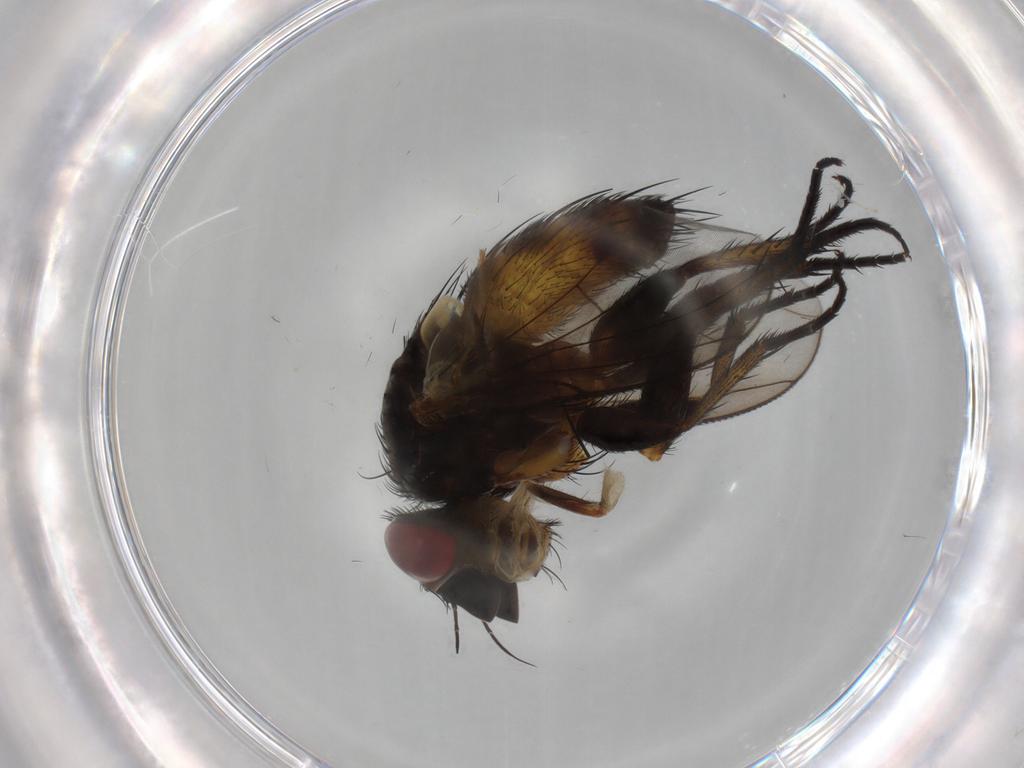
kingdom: Animalia
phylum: Arthropoda
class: Insecta
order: Diptera
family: Tachinidae
